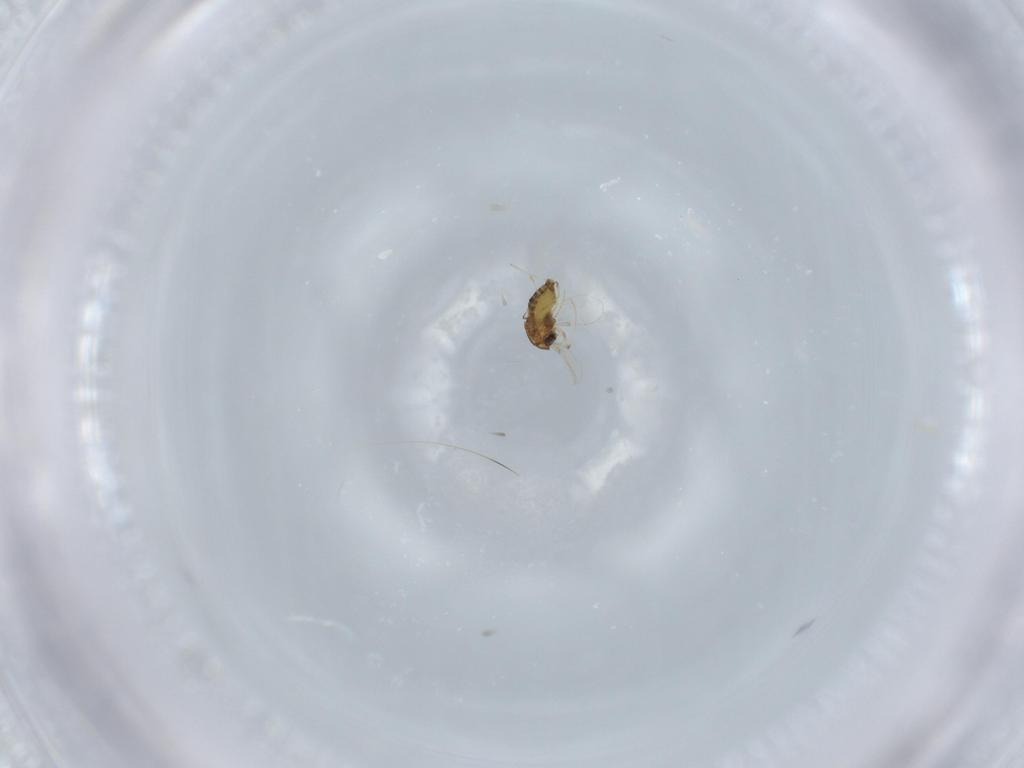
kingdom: Animalia
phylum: Arthropoda
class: Insecta
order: Diptera
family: Chironomidae
